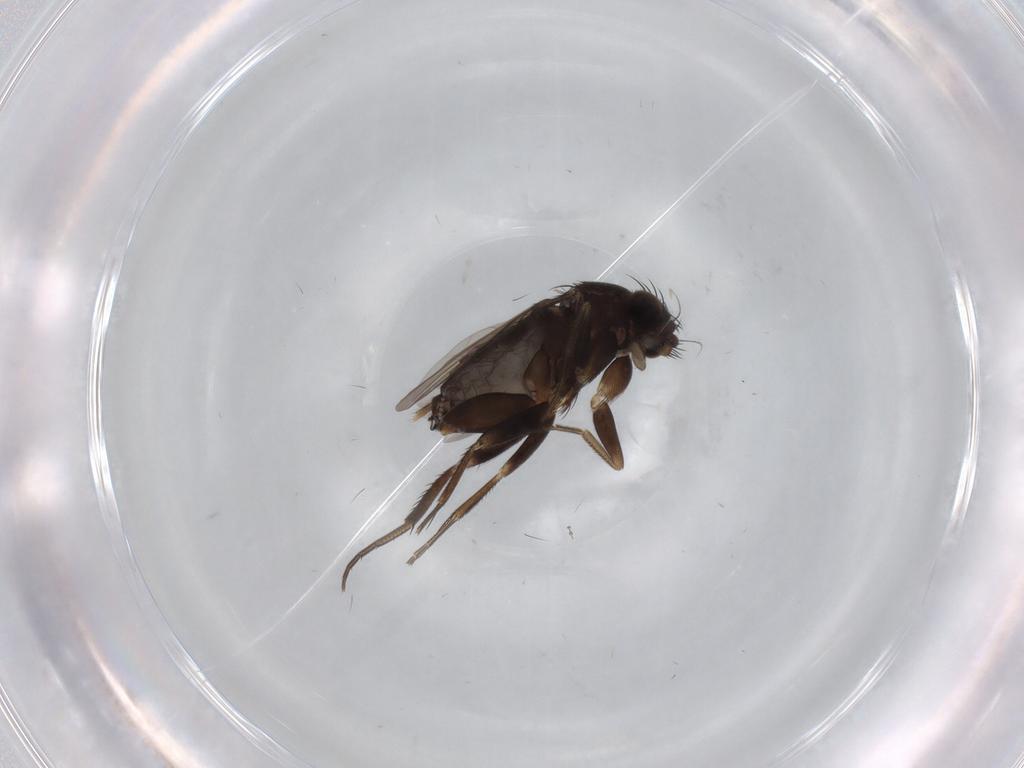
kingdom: Animalia
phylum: Arthropoda
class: Insecta
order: Diptera
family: Phoridae
